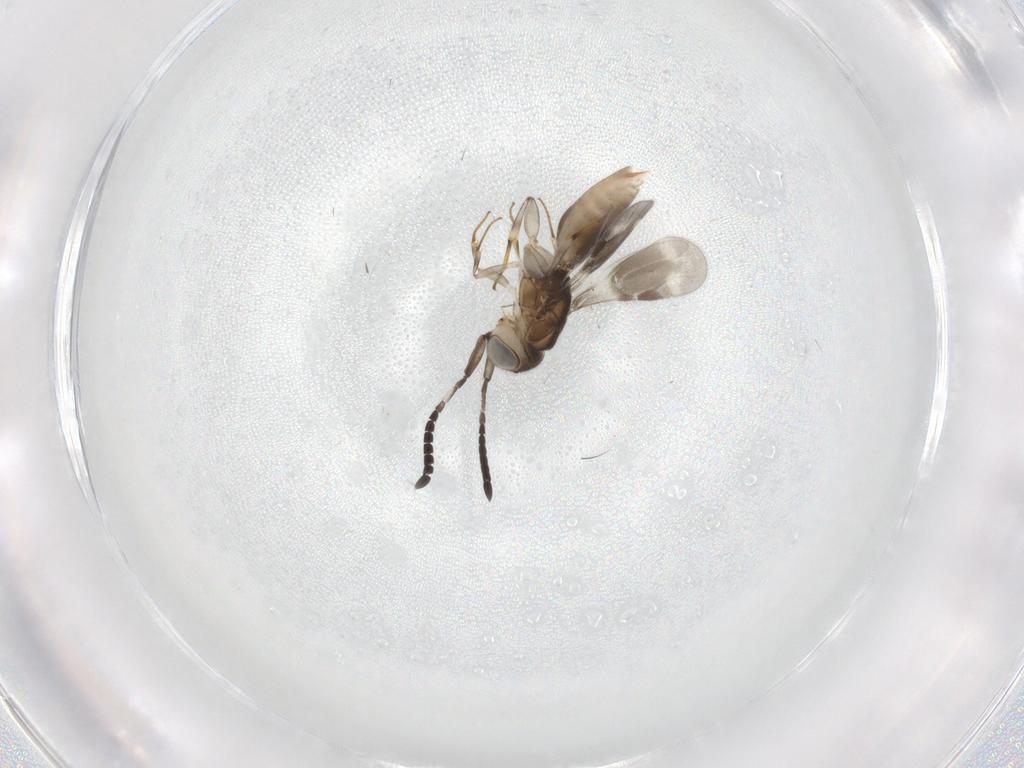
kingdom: Animalia
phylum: Arthropoda
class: Insecta
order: Hymenoptera
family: Megaspilidae
